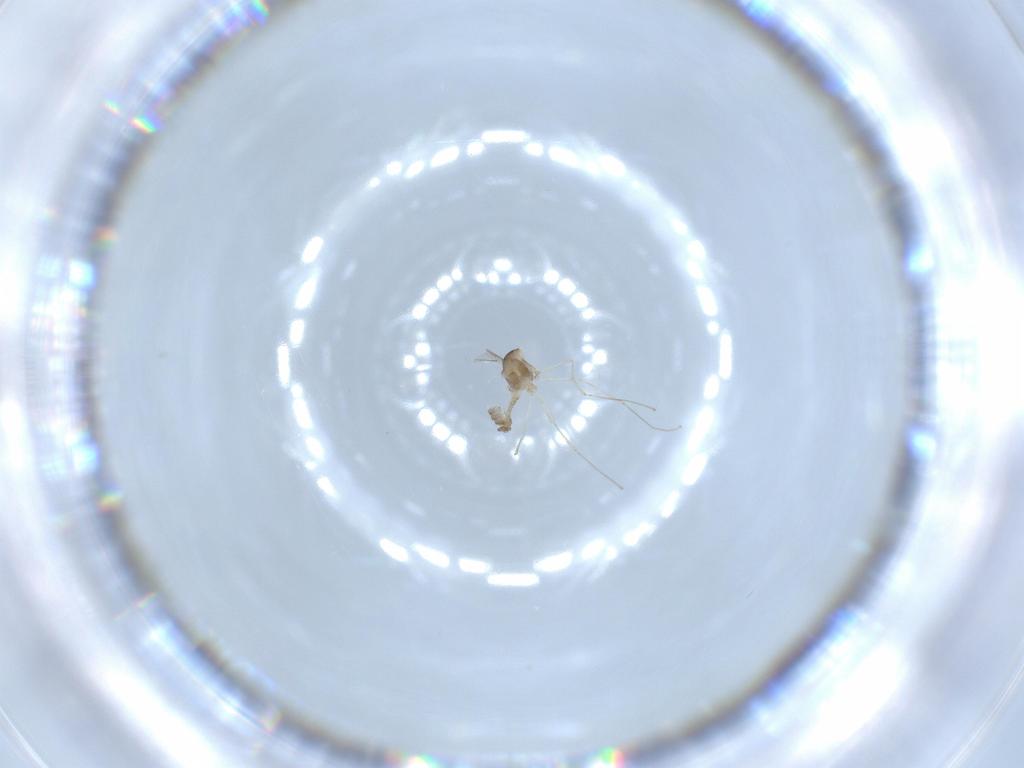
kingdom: Animalia
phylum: Arthropoda
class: Insecta
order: Diptera
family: Cecidomyiidae
